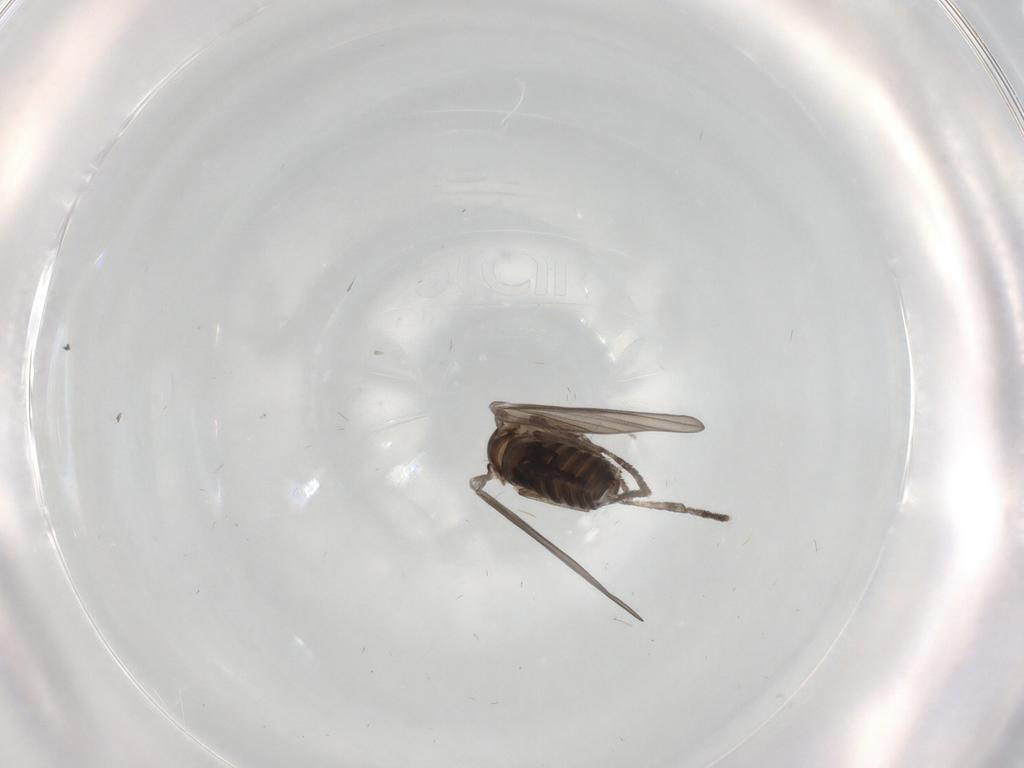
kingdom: Animalia
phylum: Arthropoda
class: Insecta
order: Diptera
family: Psychodidae
